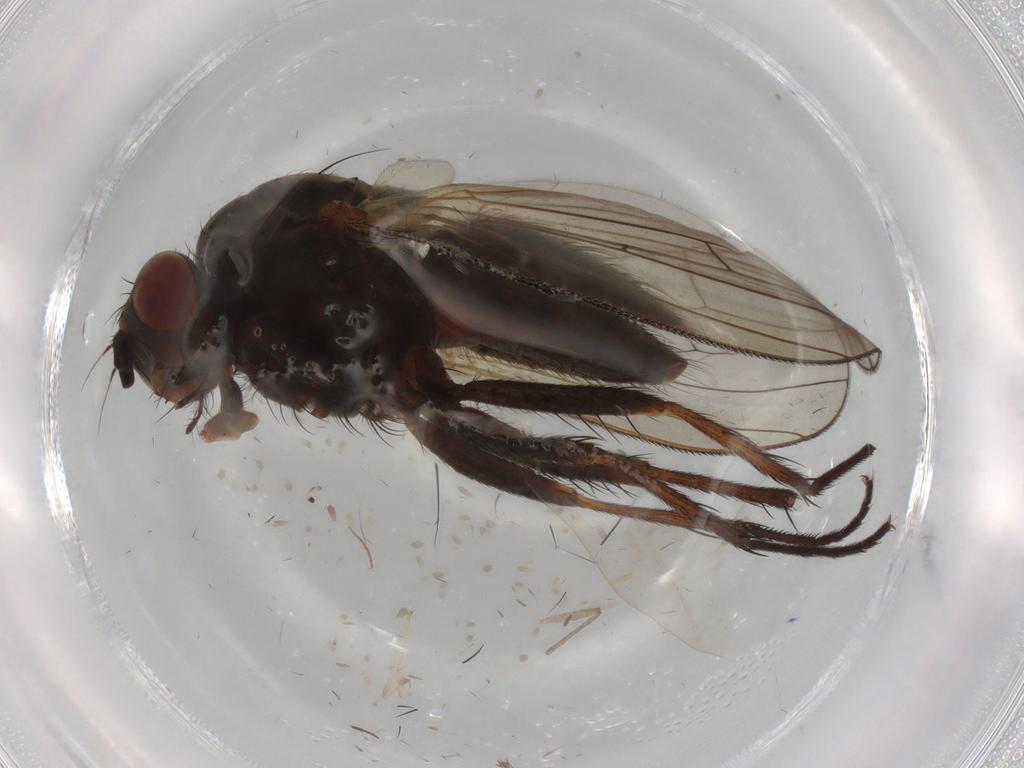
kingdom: Animalia
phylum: Arthropoda
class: Insecta
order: Diptera
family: Anthomyiidae
